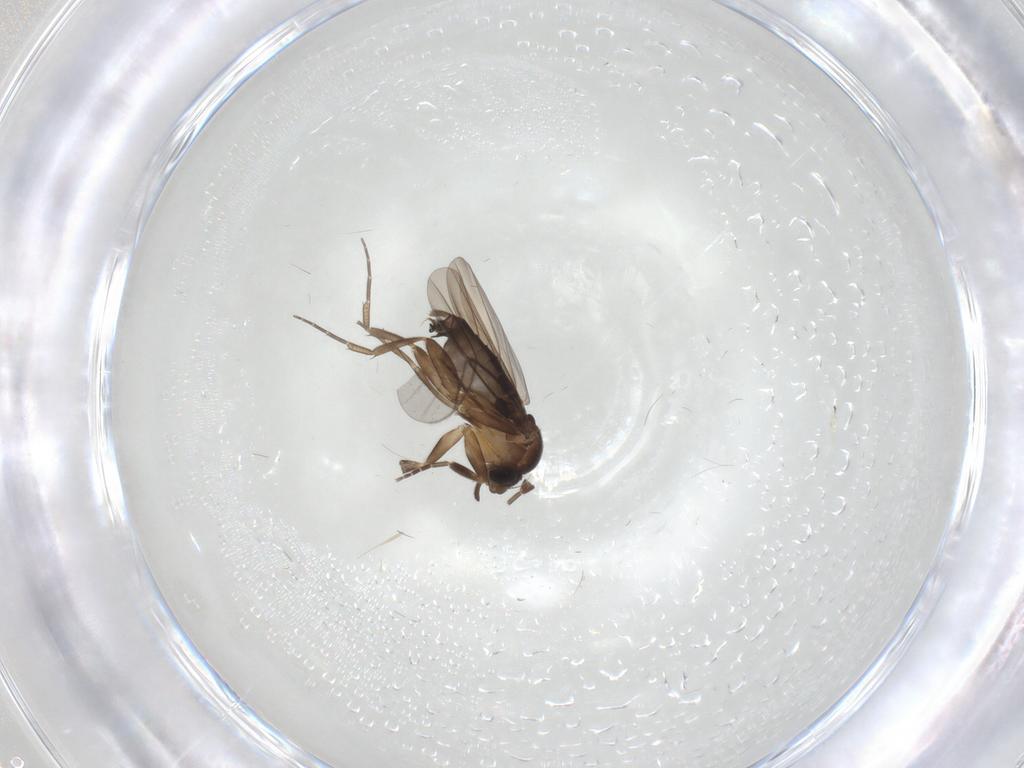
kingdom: Animalia
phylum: Arthropoda
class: Insecta
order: Diptera
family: Phoridae
